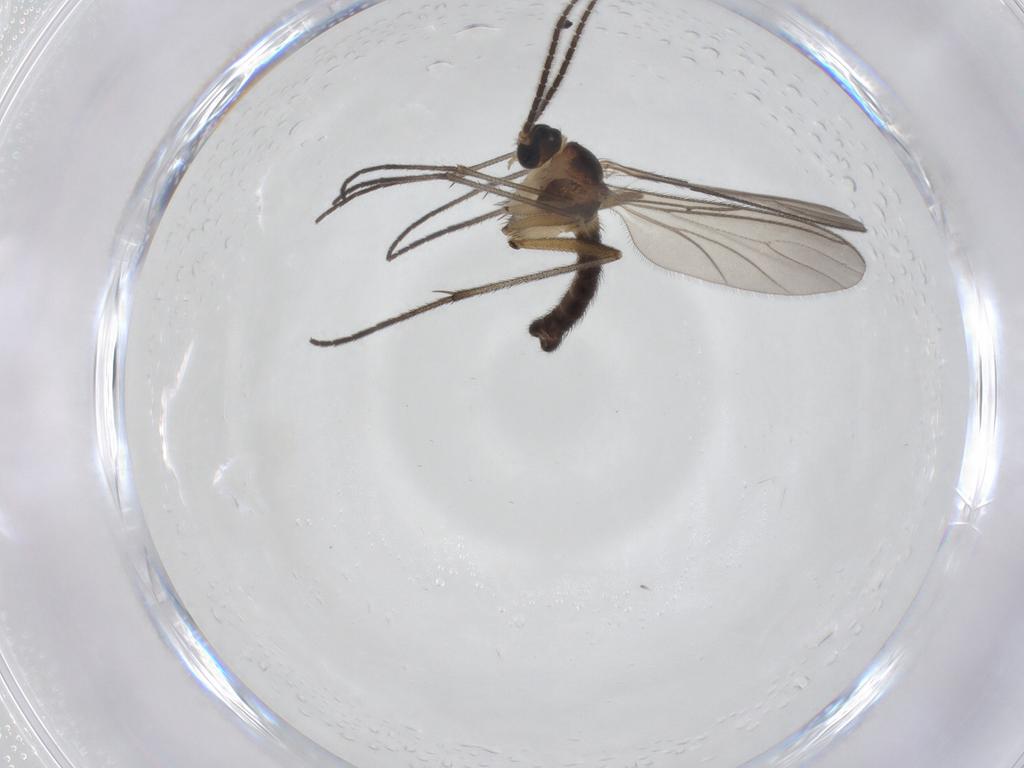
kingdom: Animalia
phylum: Arthropoda
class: Insecta
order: Diptera
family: Sciaridae
